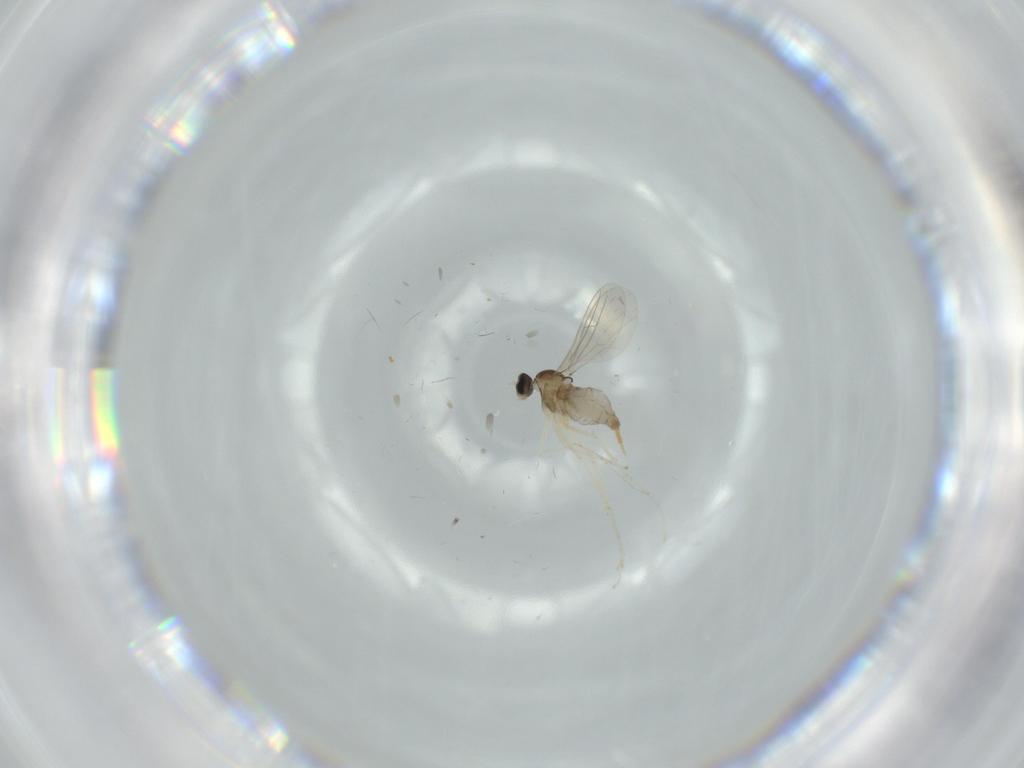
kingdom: Animalia
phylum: Arthropoda
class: Insecta
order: Diptera
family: Cecidomyiidae
